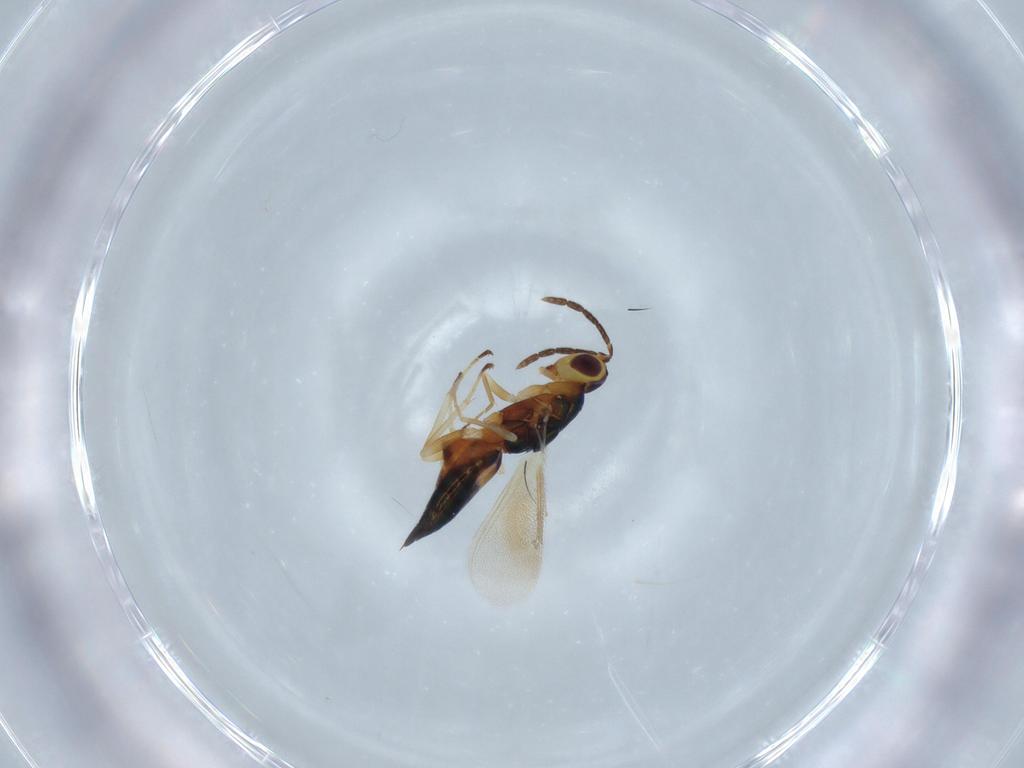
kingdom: Animalia
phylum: Arthropoda
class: Insecta
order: Hymenoptera
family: Eulophidae
